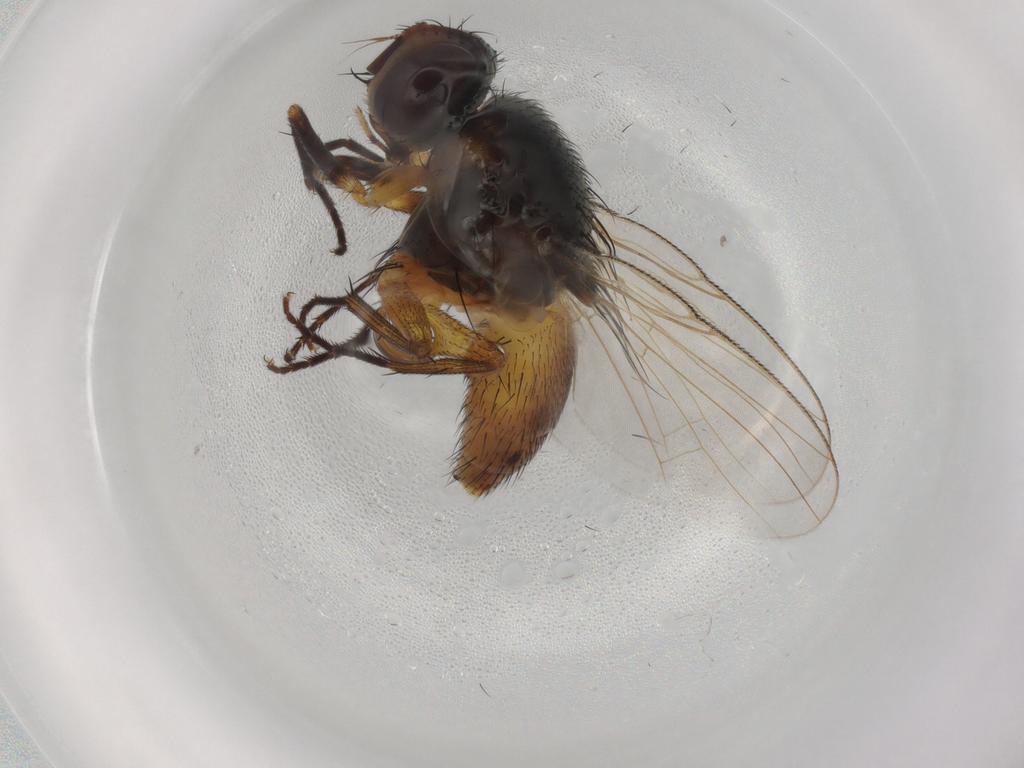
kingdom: Animalia
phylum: Arthropoda
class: Insecta
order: Diptera
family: Muscidae
